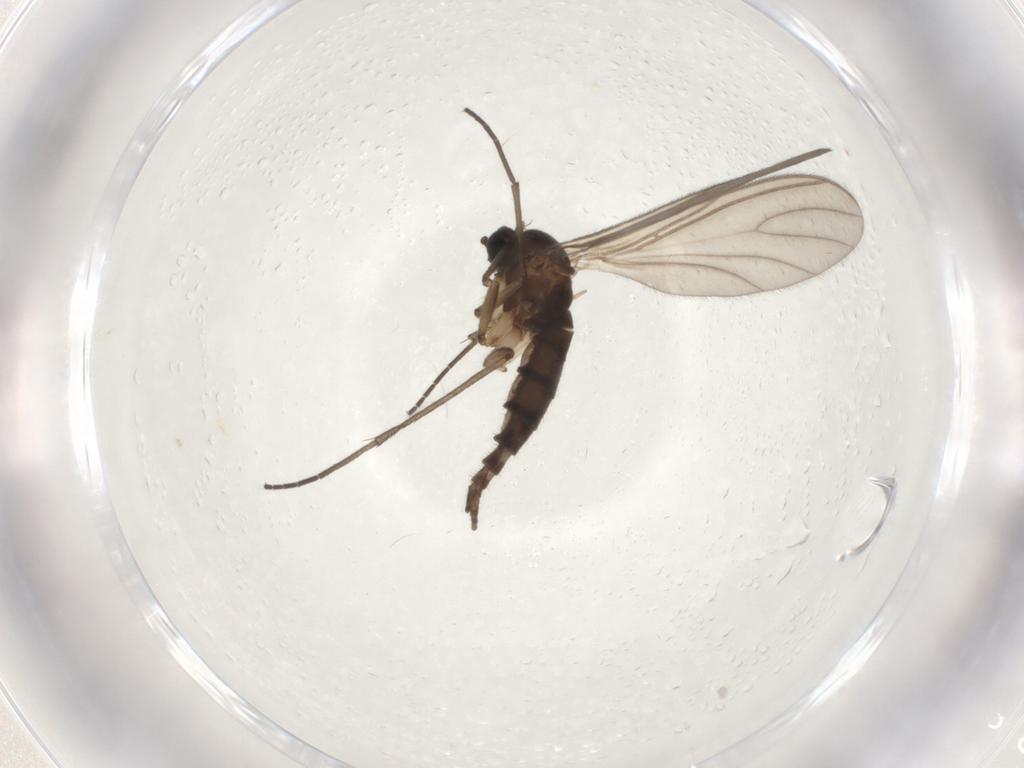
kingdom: Animalia
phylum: Arthropoda
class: Insecta
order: Diptera
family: Sciaridae
